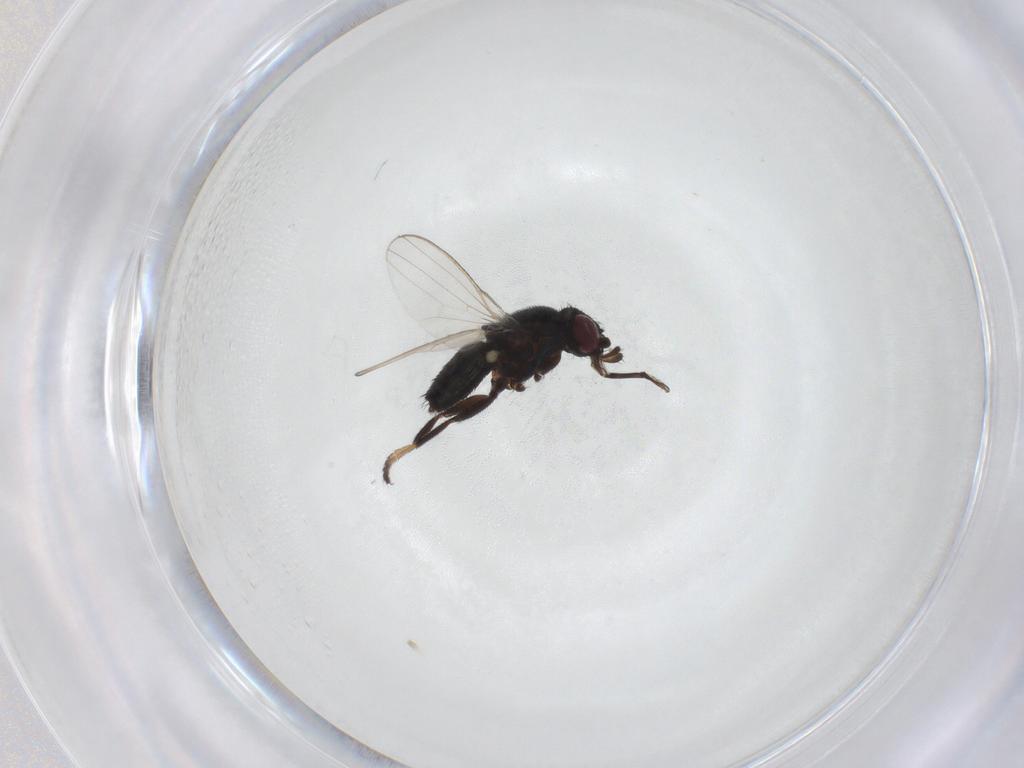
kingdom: Animalia
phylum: Arthropoda
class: Insecta
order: Diptera
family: Milichiidae
